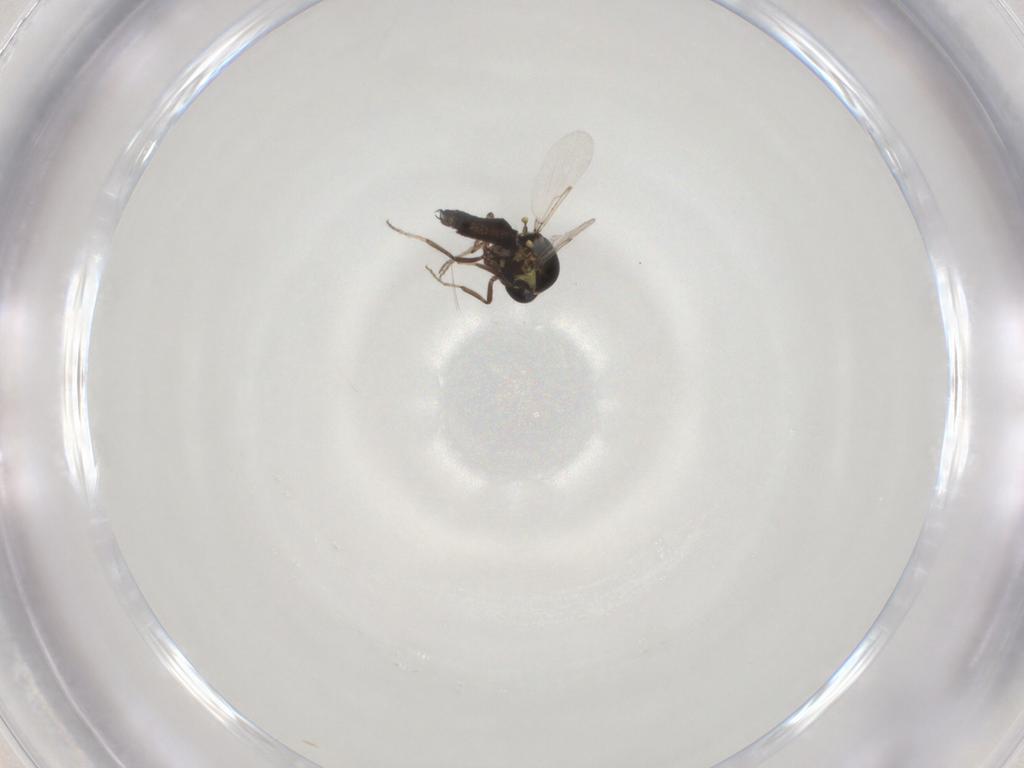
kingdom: Animalia
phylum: Arthropoda
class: Insecta
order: Diptera
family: Ceratopogonidae
